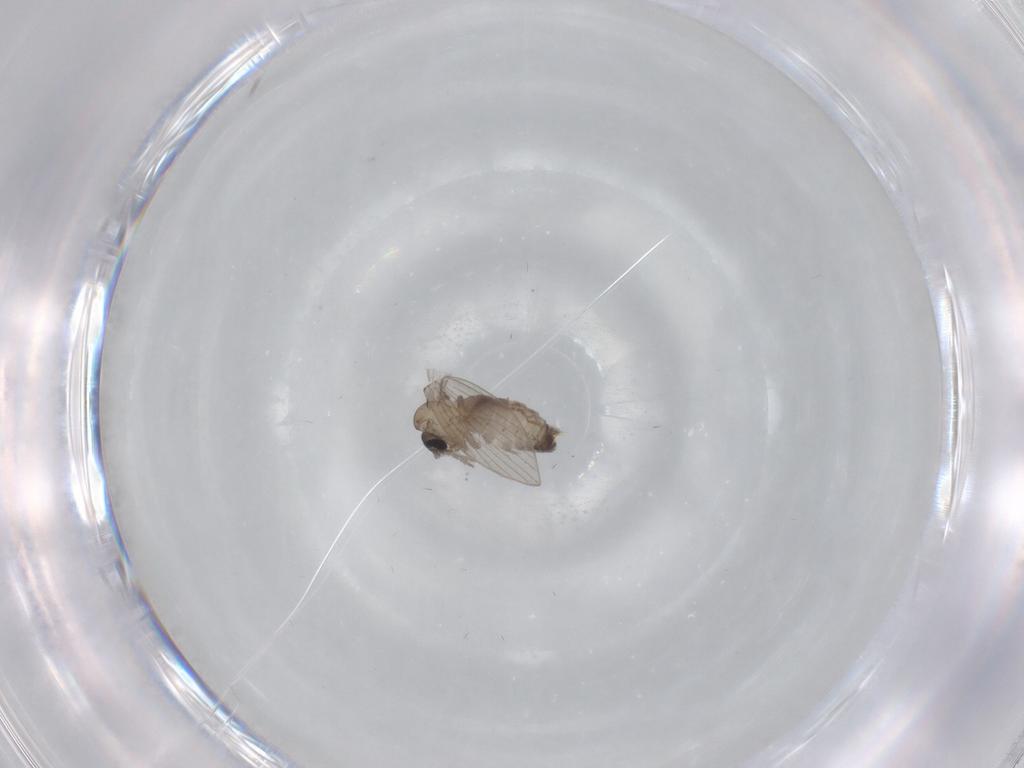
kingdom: Animalia
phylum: Arthropoda
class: Insecta
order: Diptera
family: Psychodidae
